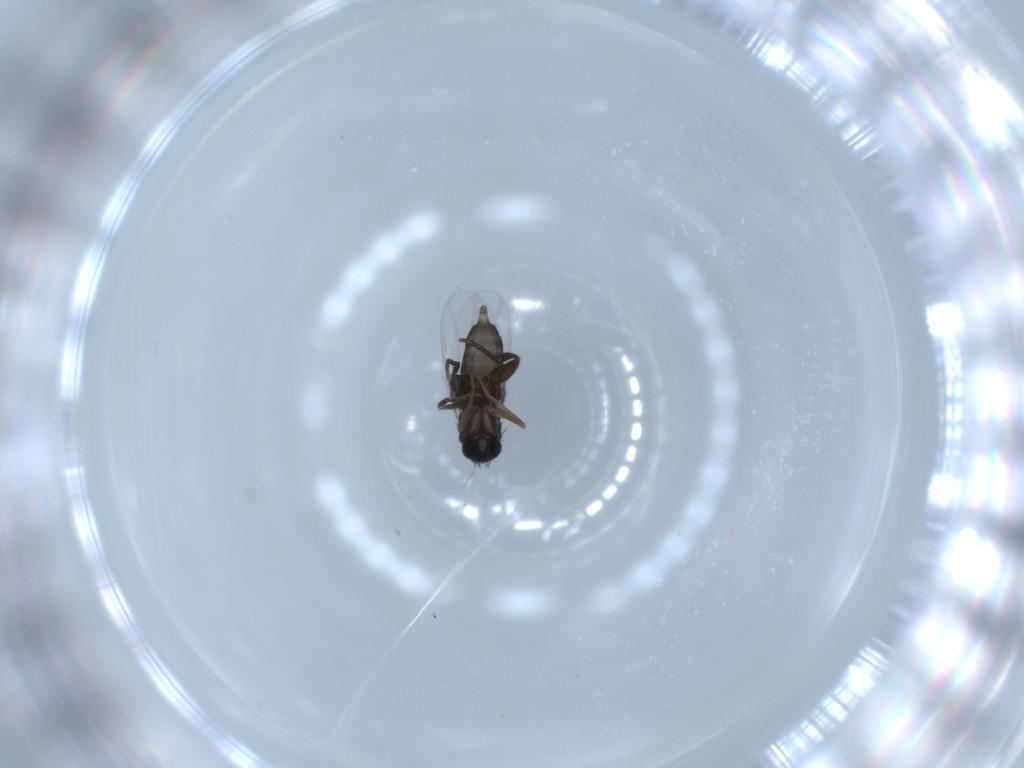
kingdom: Animalia
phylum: Arthropoda
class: Insecta
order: Diptera
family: Phoridae
